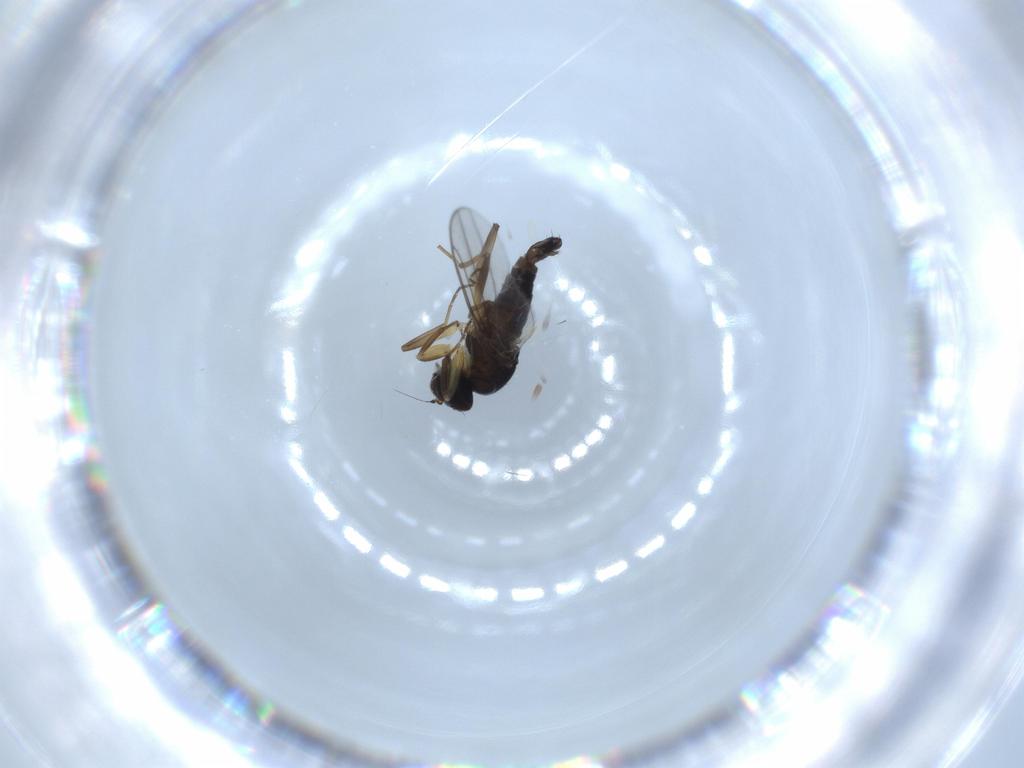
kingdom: Animalia
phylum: Arthropoda
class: Insecta
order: Diptera
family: Hybotidae
